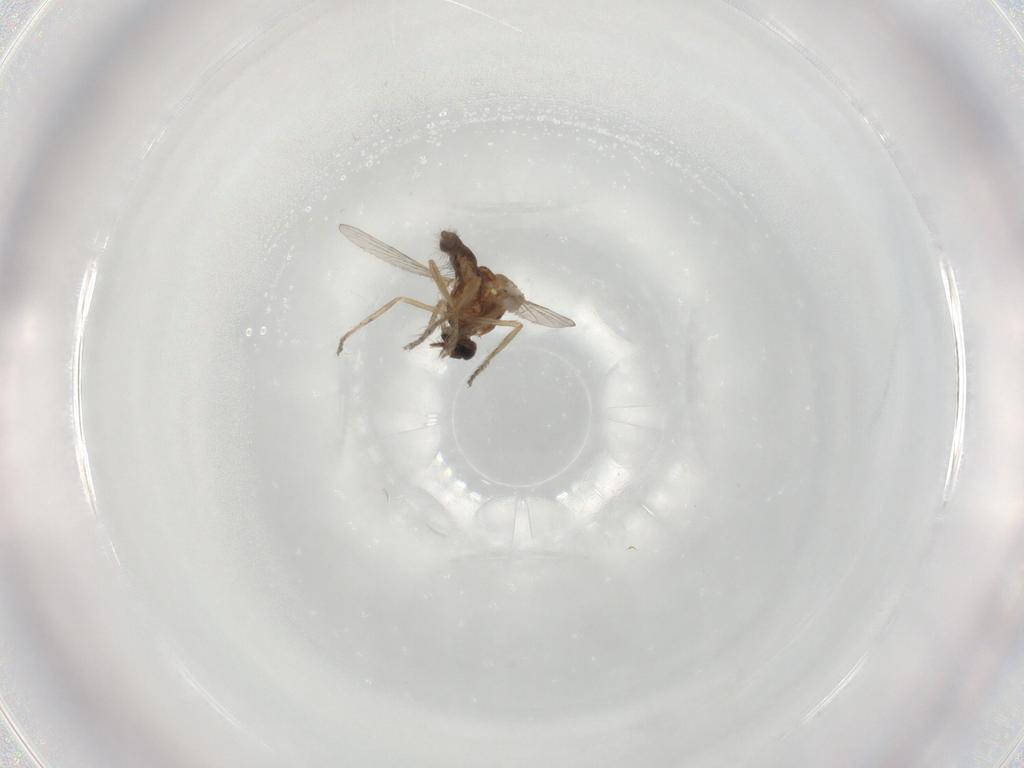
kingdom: Animalia
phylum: Arthropoda
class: Insecta
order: Diptera
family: Ceratopogonidae
